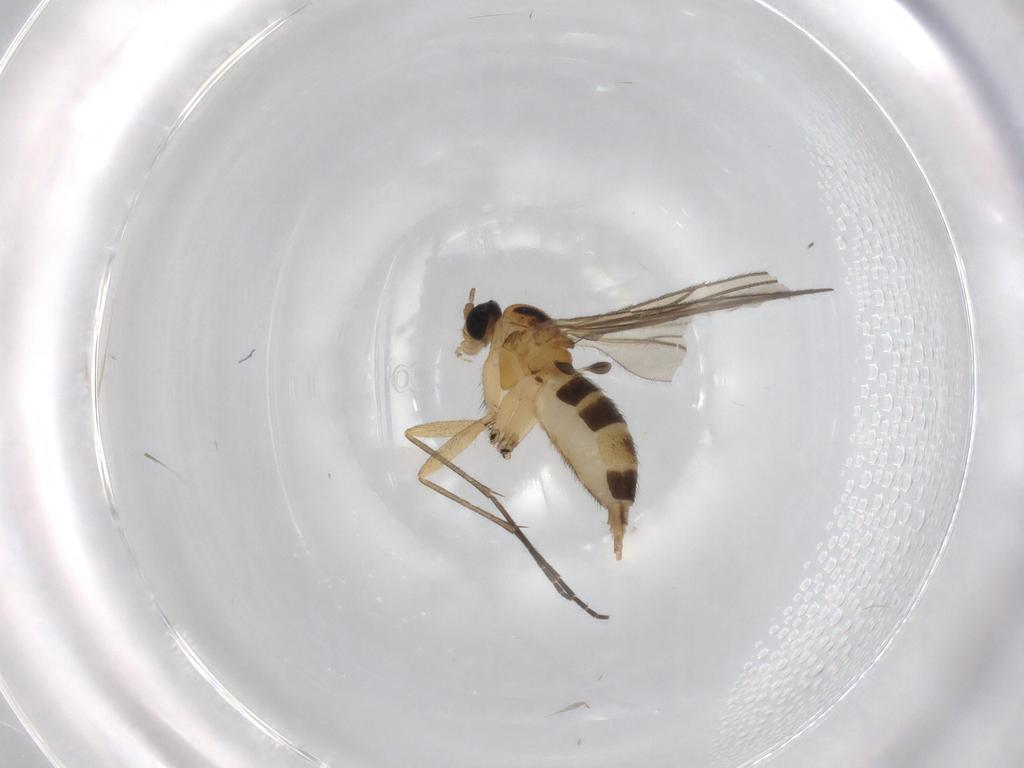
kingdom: Animalia
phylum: Arthropoda
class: Insecta
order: Diptera
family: Sciaridae
